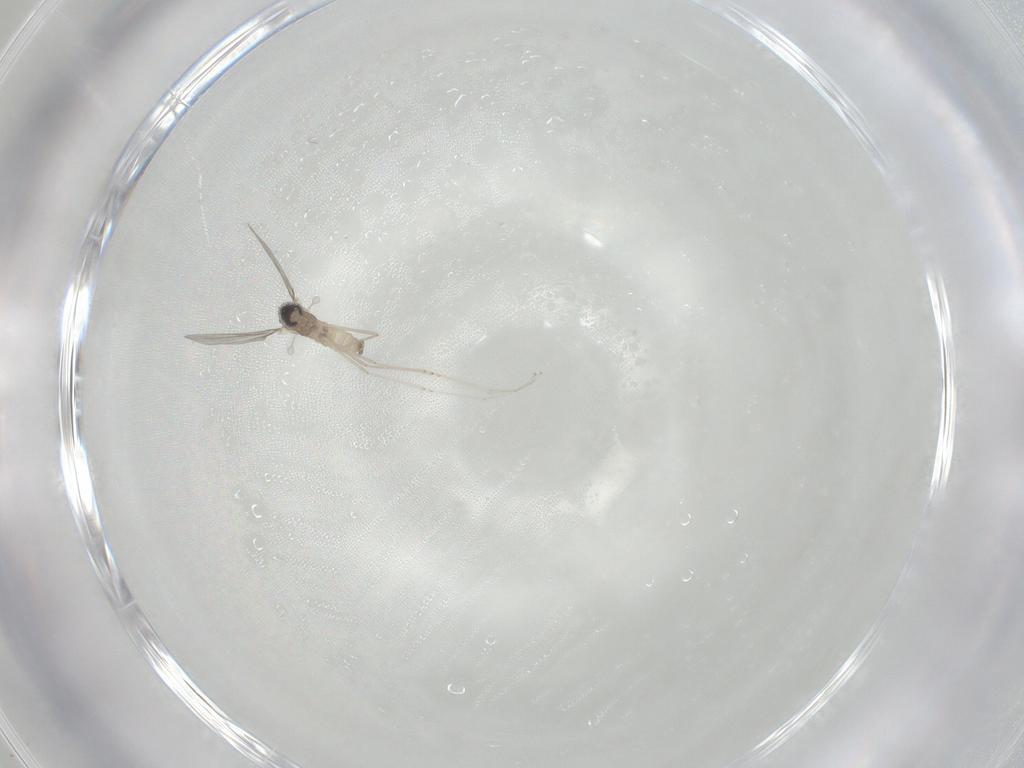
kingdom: Animalia
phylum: Arthropoda
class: Insecta
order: Diptera
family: Cecidomyiidae
